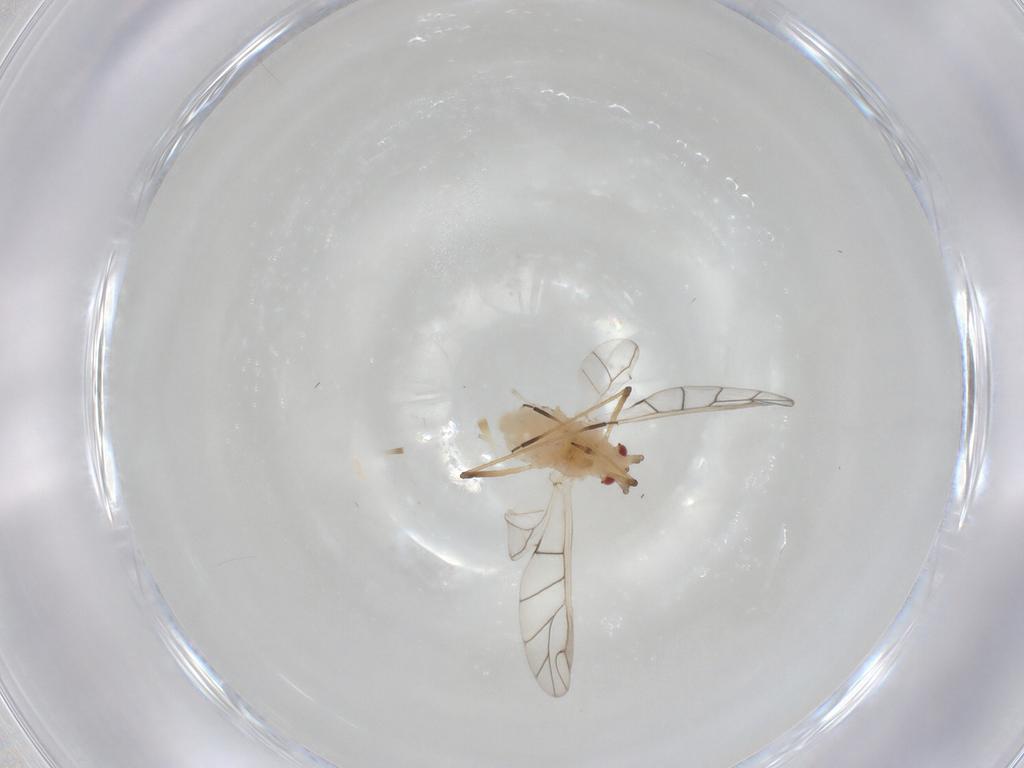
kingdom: Animalia
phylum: Arthropoda
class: Insecta
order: Hemiptera
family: Aphididae
